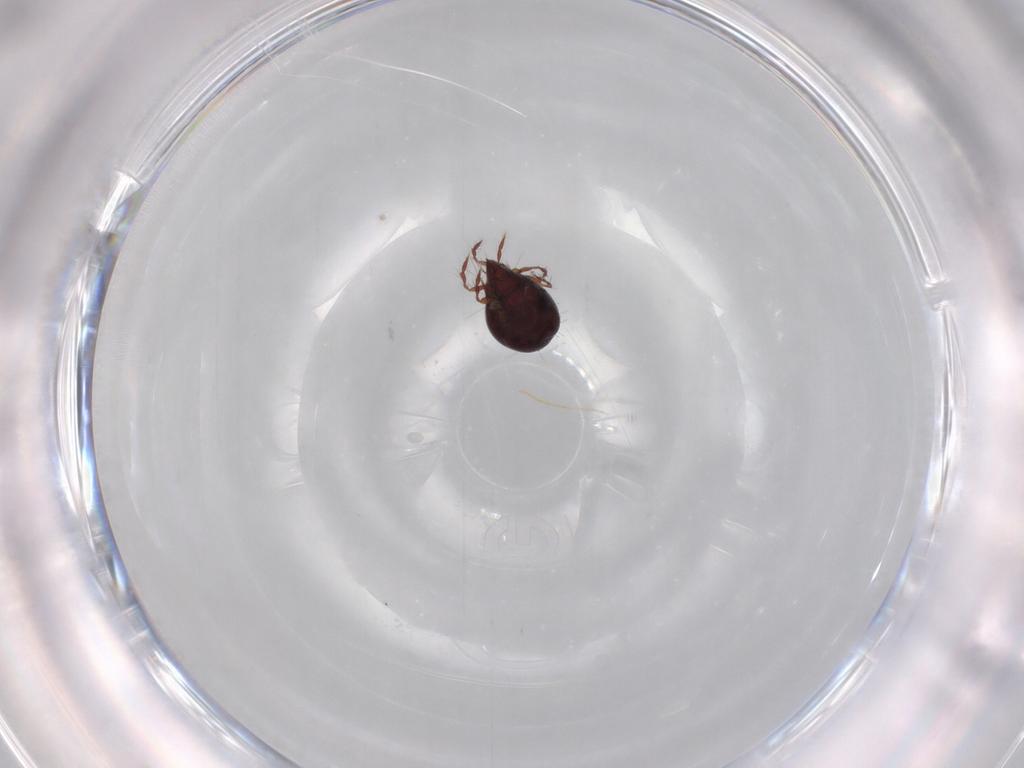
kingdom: Animalia
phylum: Arthropoda
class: Arachnida
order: Sarcoptiformes
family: Ceratoppiidae
